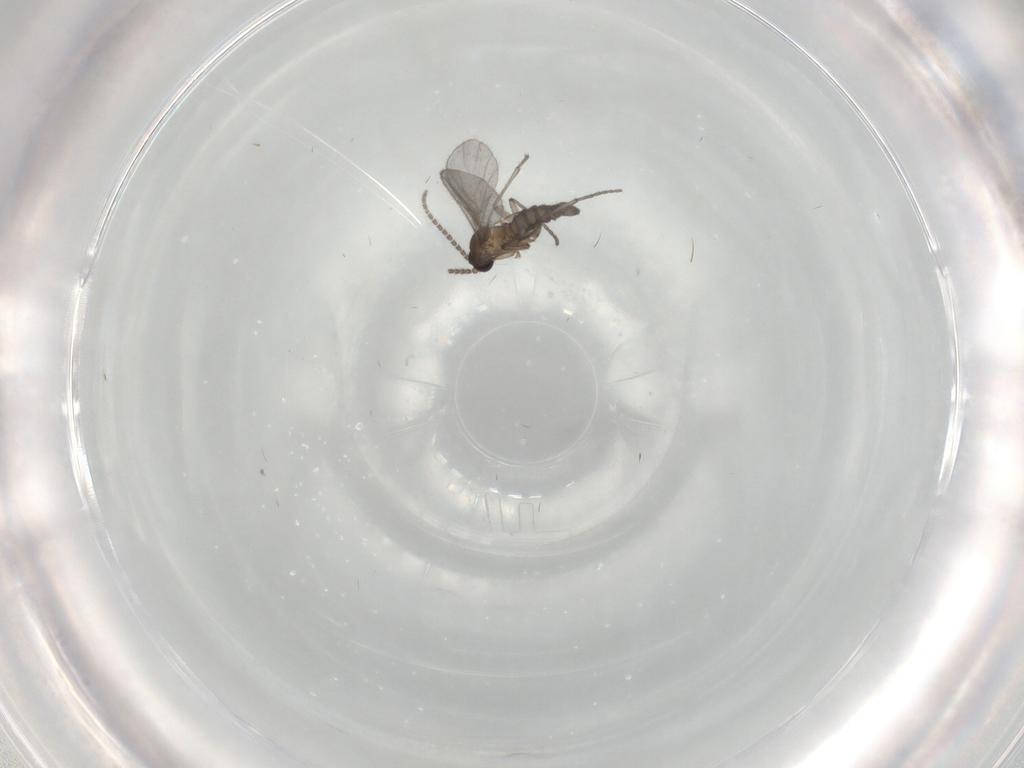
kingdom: Animalia
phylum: Arthropoda
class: Insecta
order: Diptera
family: Sciaridae
